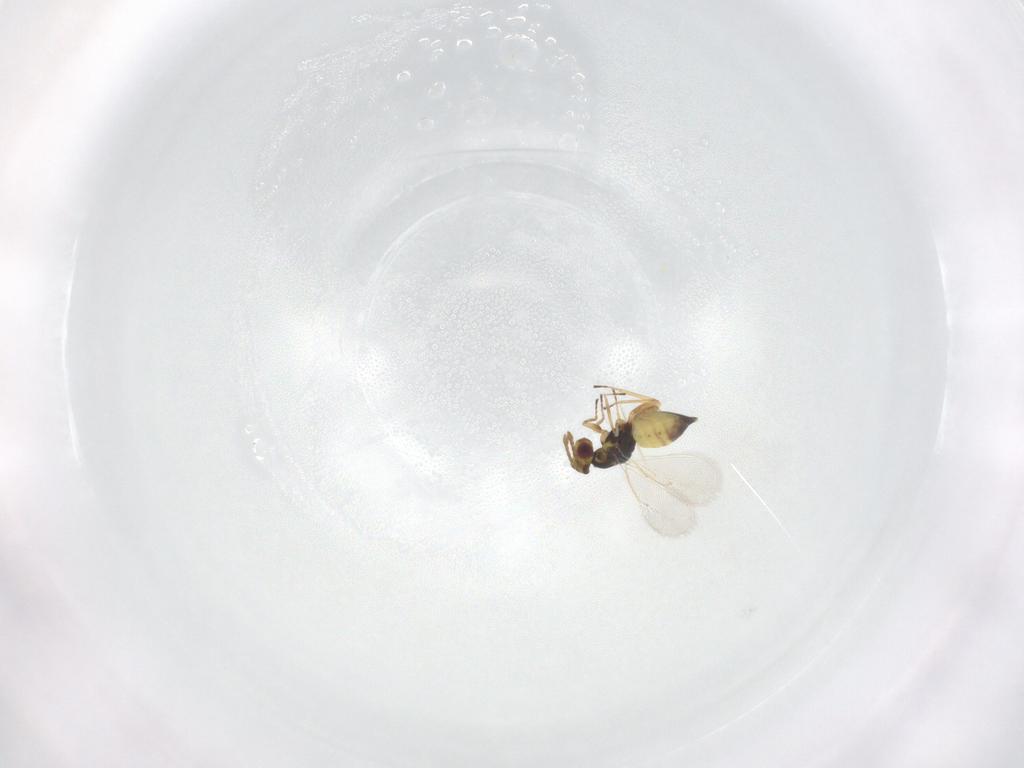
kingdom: Animalia
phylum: Arthropoda
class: Insecta
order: Hymenoptera
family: Eulophidae
